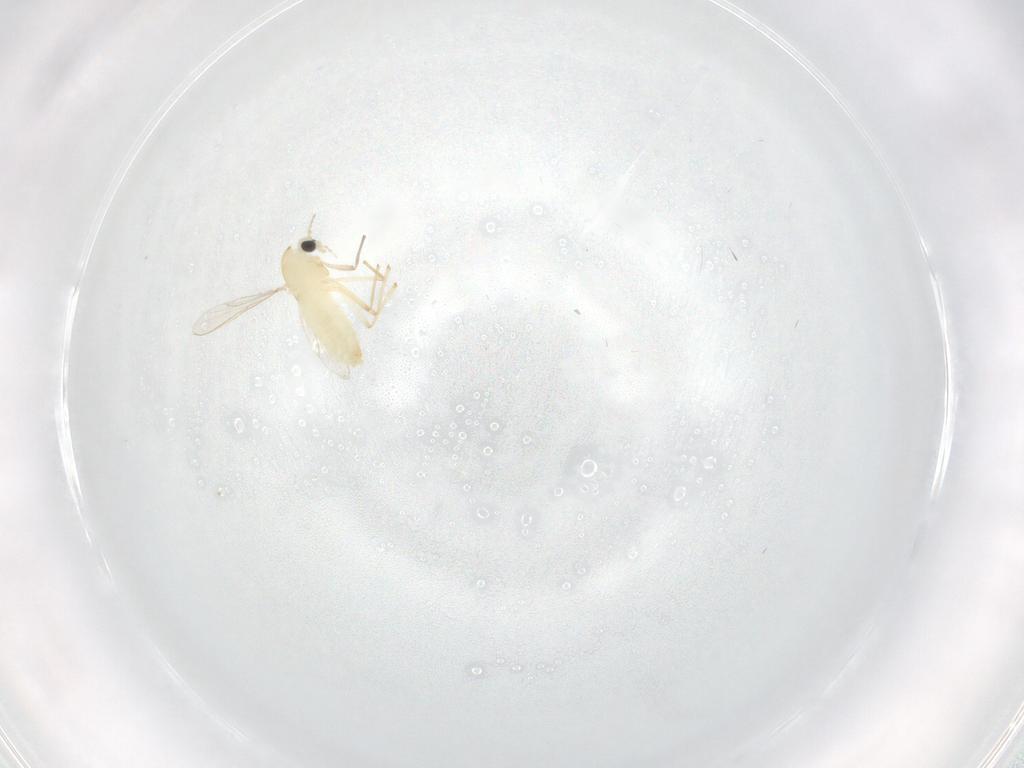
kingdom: Animalia
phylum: Arthropoda
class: Insecta
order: Diptera
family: Chironomidae
